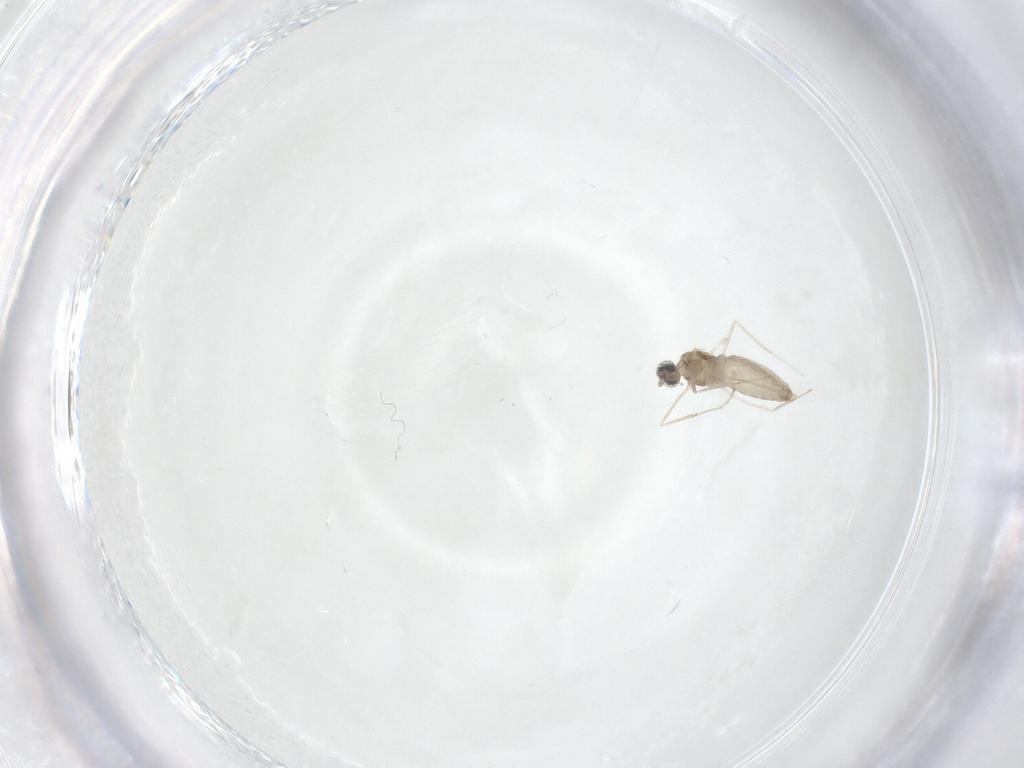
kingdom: Animalia
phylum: Arthropoda
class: Insecta
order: Diptera
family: Cecidomyiidae
